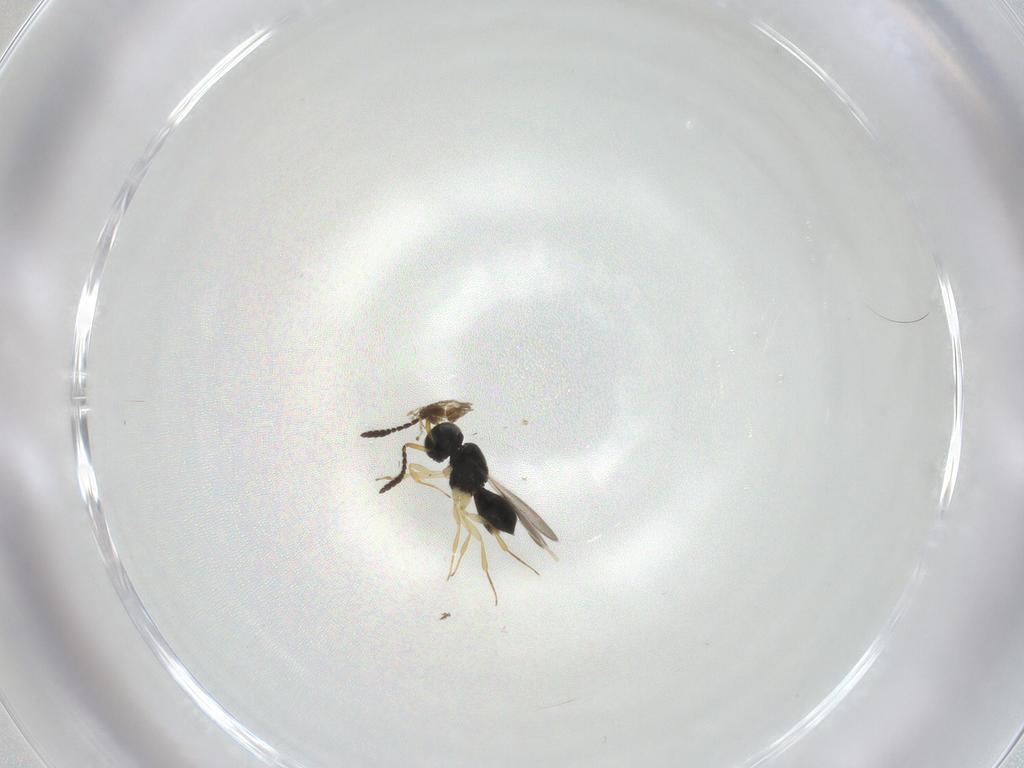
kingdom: Animalia
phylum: Arthropoda
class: Insecta
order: Hymenoptera
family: Scelionidae
